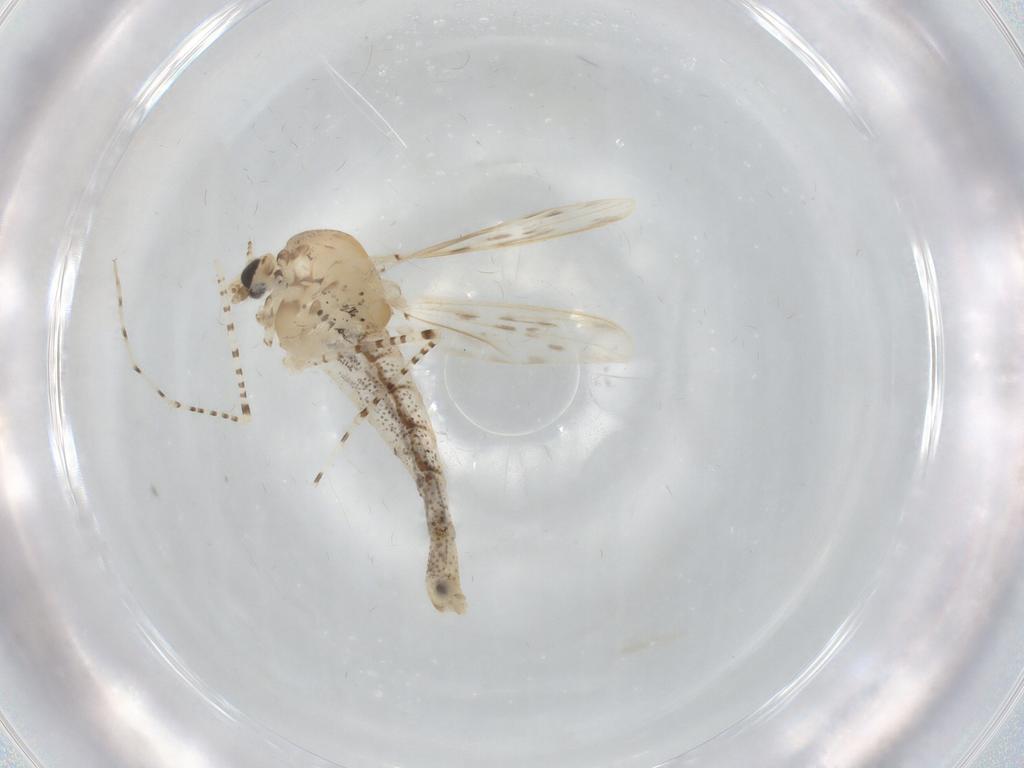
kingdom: Animalia
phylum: Arthropoda
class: Insecta
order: Diptera
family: Chaoboridae
